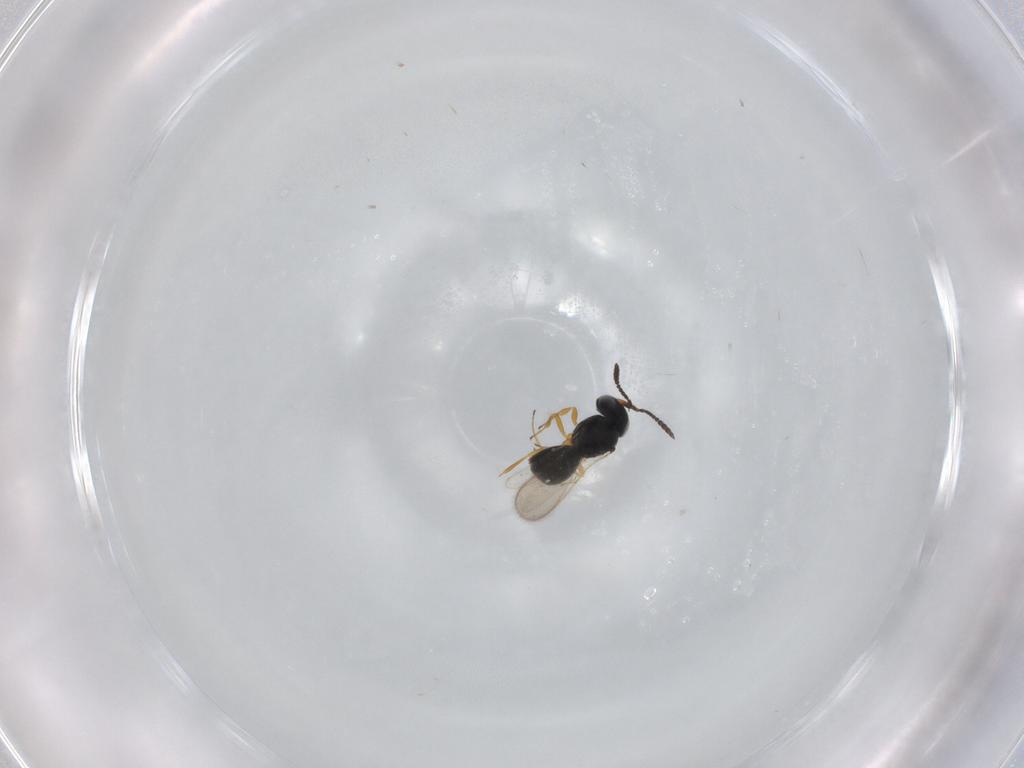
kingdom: Animalia
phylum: Arthropoda
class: Insecta
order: Hymenoptera
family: Scelionidae
